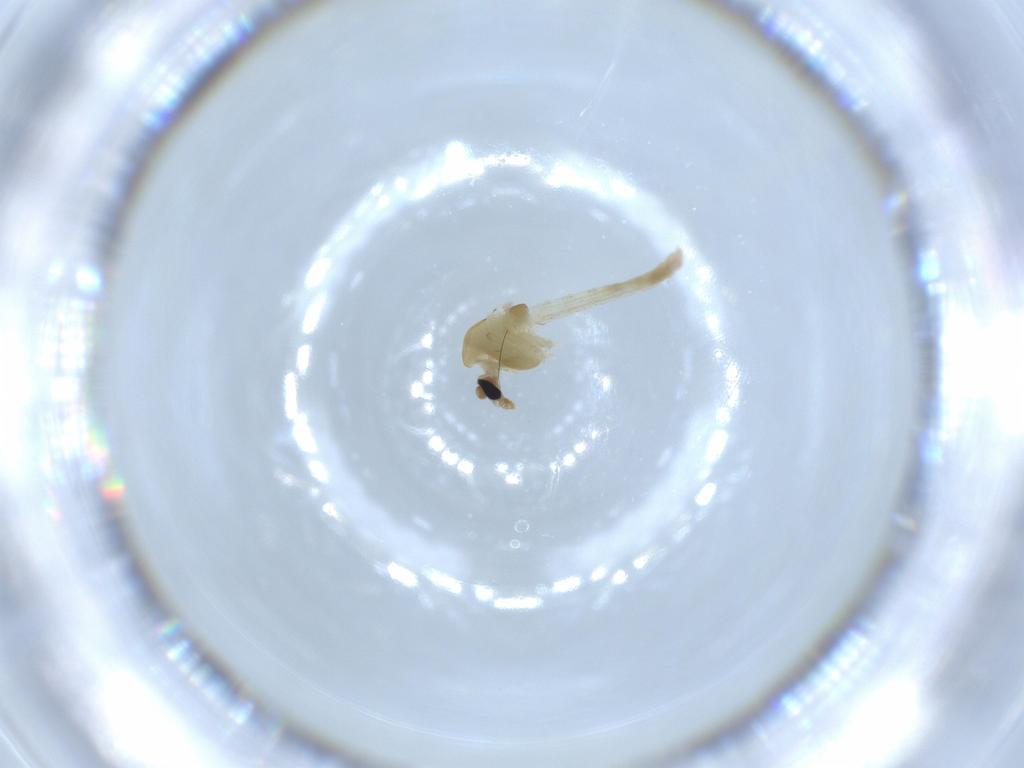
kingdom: Animalia
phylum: Arthropoda
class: Insecta
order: Diptera
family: Chironomidae
